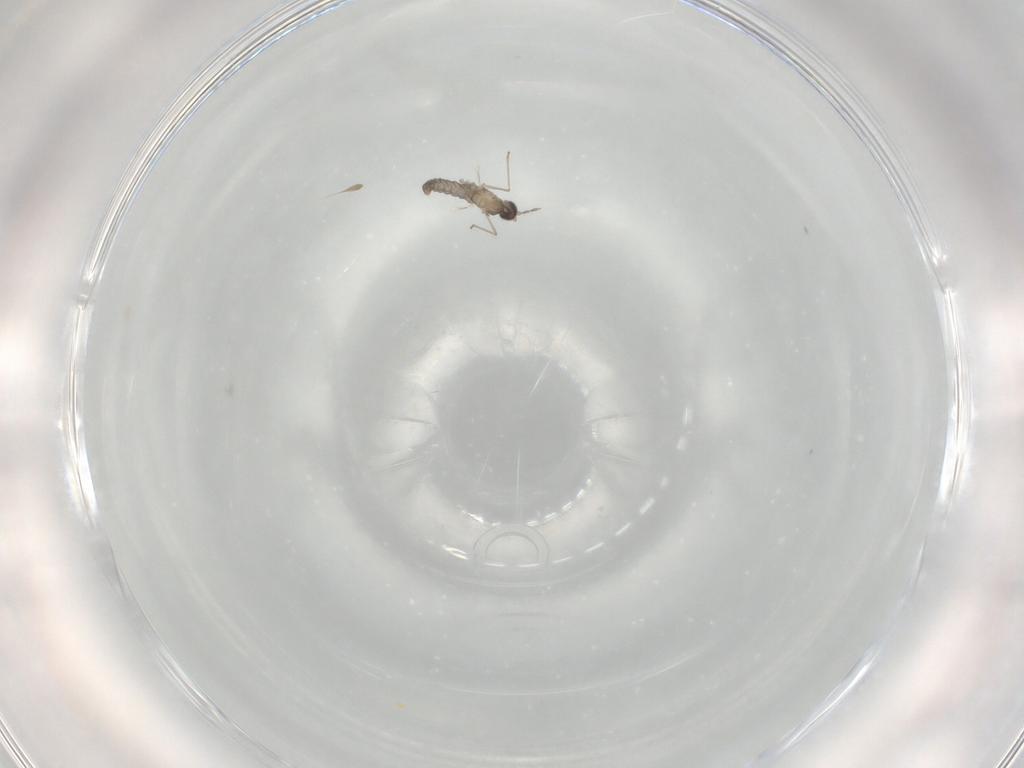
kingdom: Animalia
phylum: Arthropoda
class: Insecta
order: Diptera
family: Cecidomyiidae
